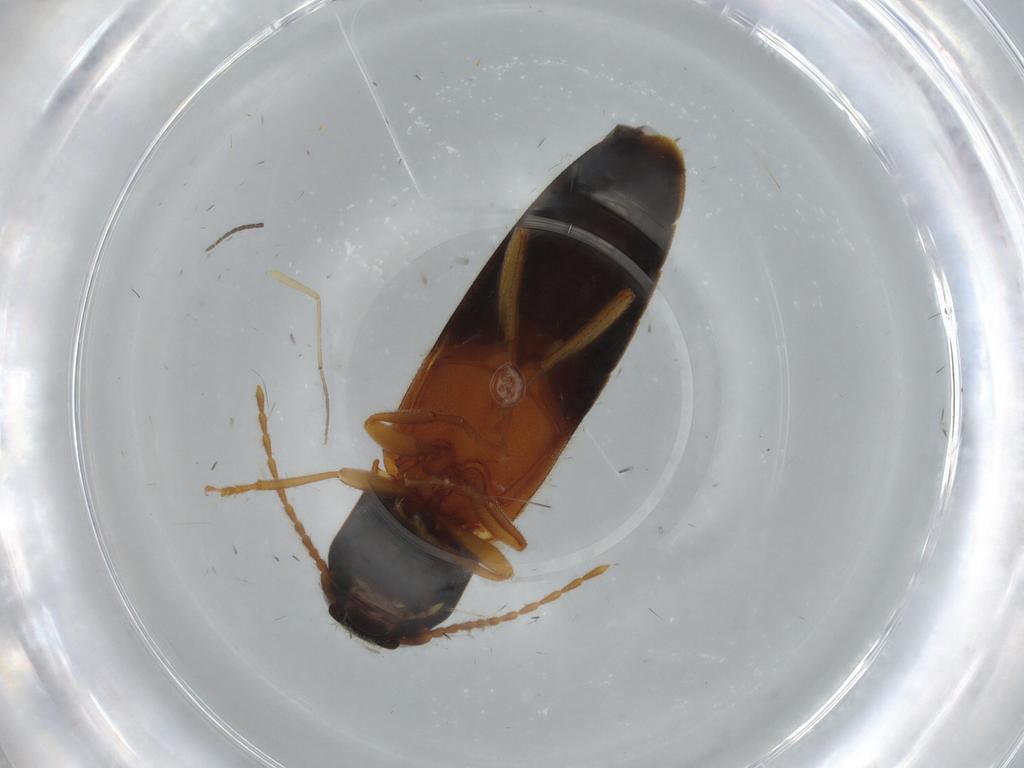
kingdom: Animalia
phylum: Arthropoda
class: Insecta
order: Coleoptera
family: Elateridae
